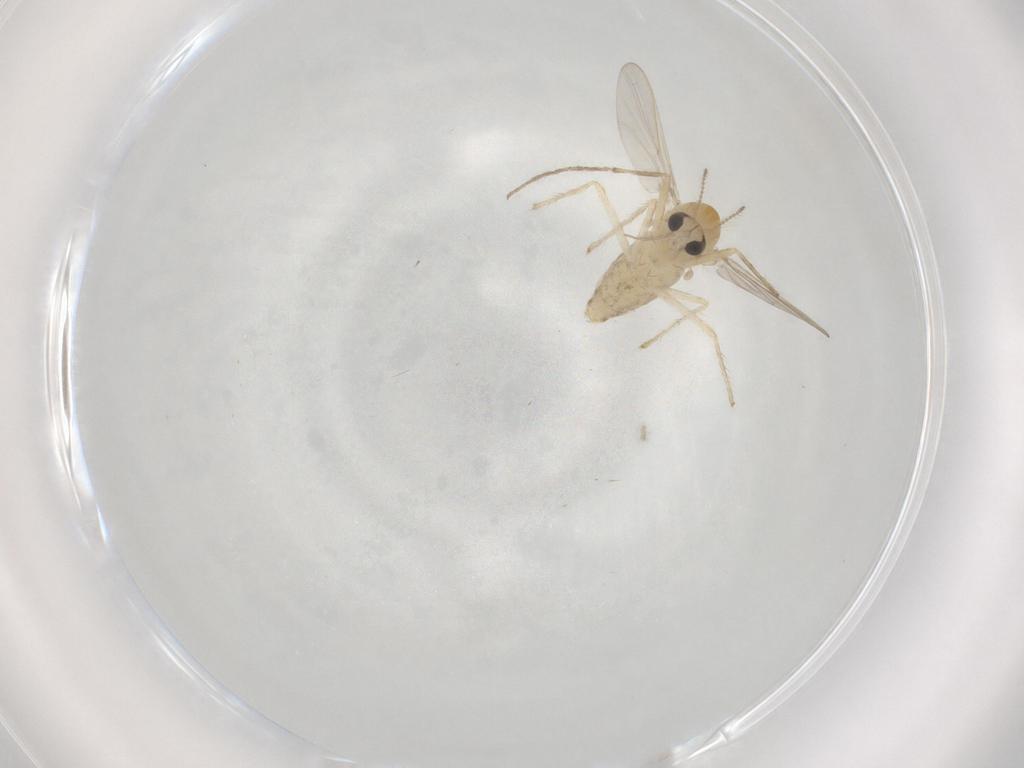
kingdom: Animalia
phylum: Arthropoda
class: Insecta
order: Diptera
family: Chironomidae
